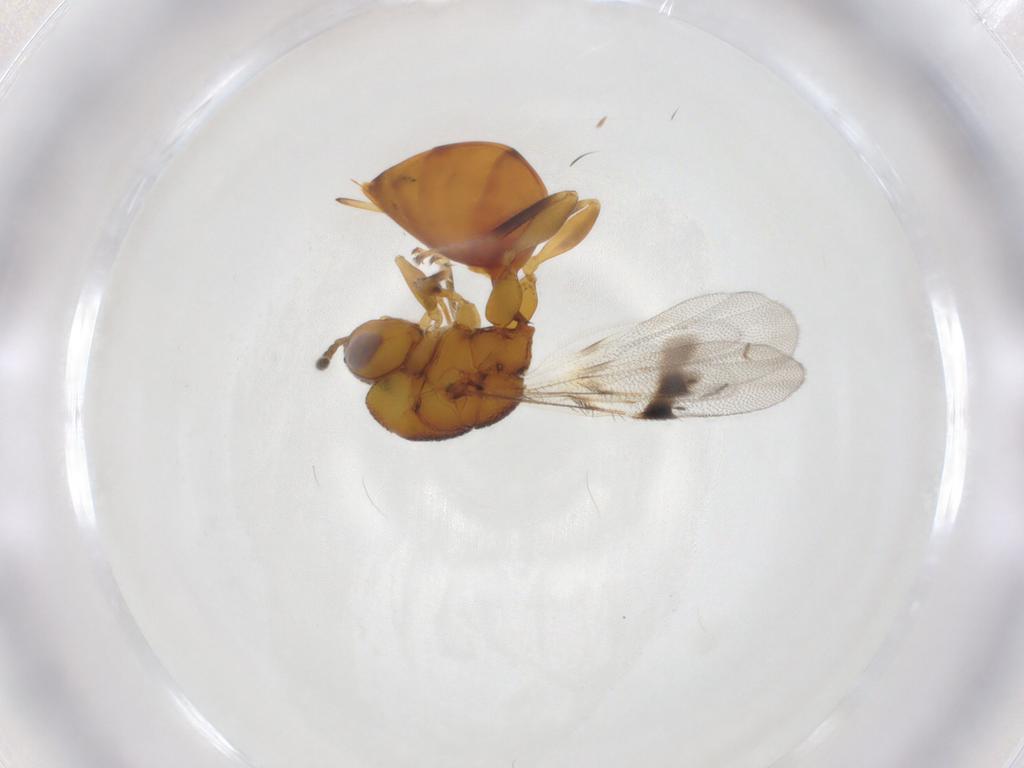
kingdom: Animalia
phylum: Arthropoda
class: Insecta
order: Hymenoptera
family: Eurytomidae
